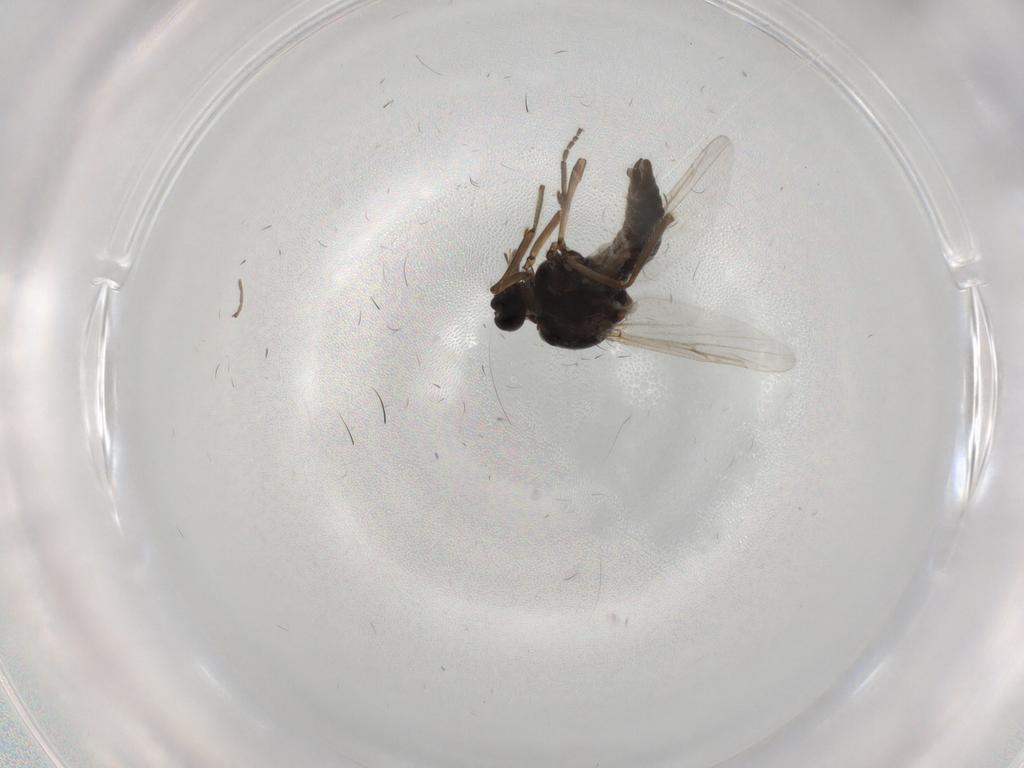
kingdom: Animalia
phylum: Arthropoda
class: Insecta
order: Diptera
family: Ceratopogonidae
